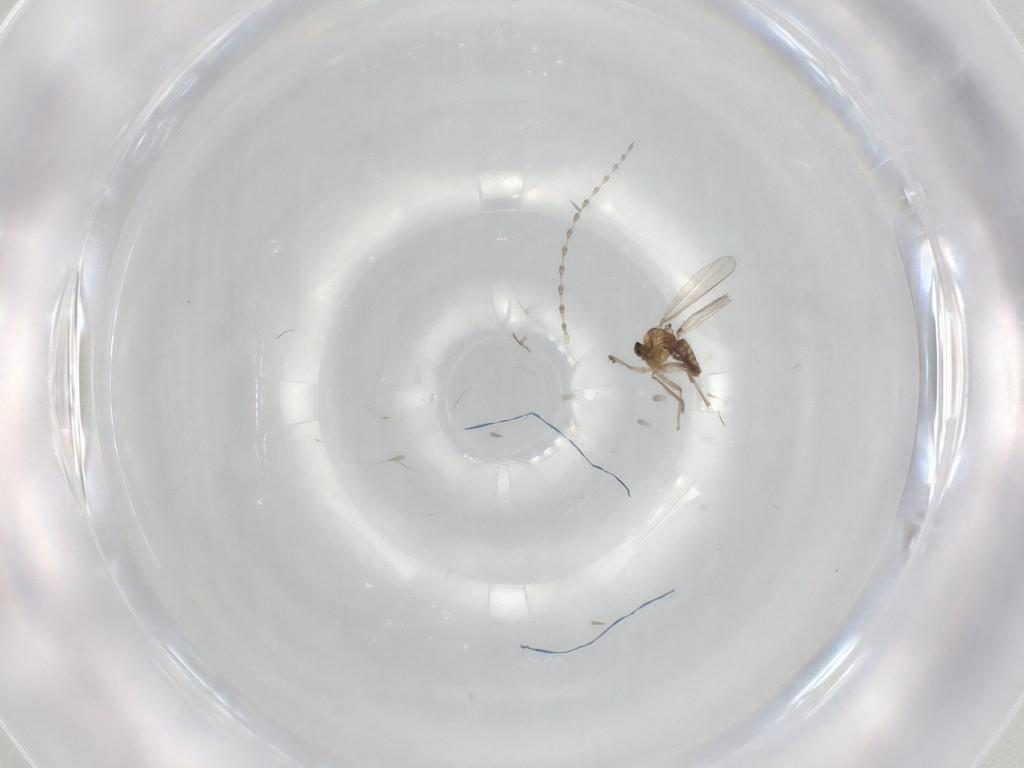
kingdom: Animalia
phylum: Arthropoda
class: Insecta
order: Diptera
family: Chironomidae
